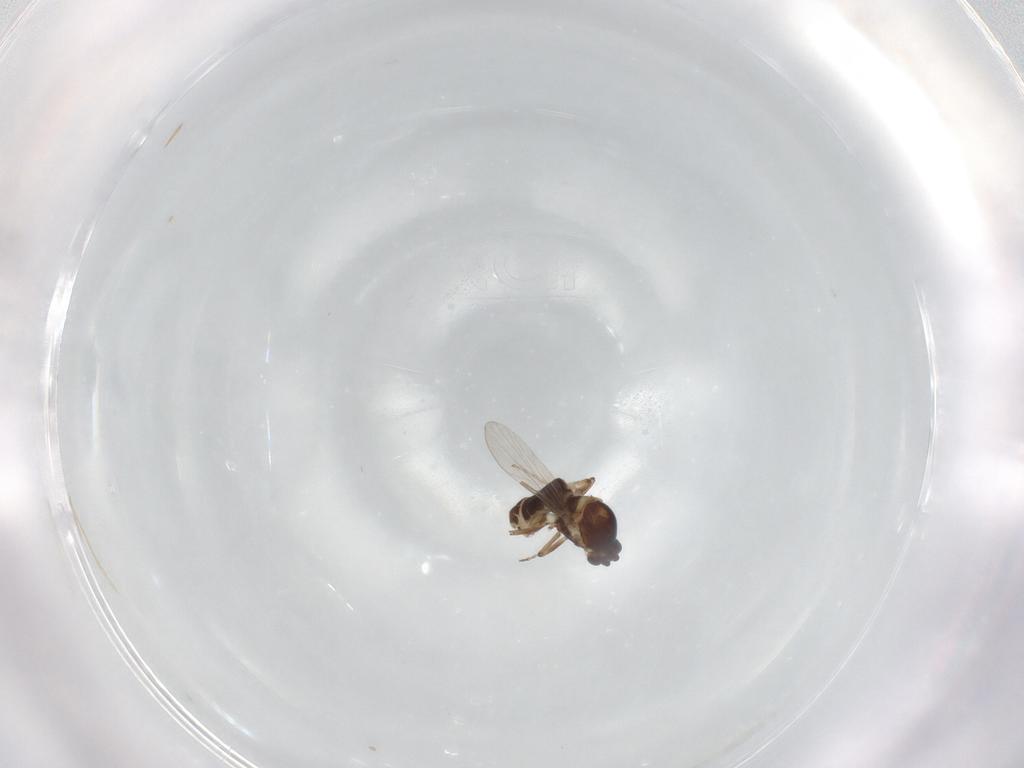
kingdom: Animalia
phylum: Arthropoda
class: Insecta
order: Diptera
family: Ceratopogonidae
